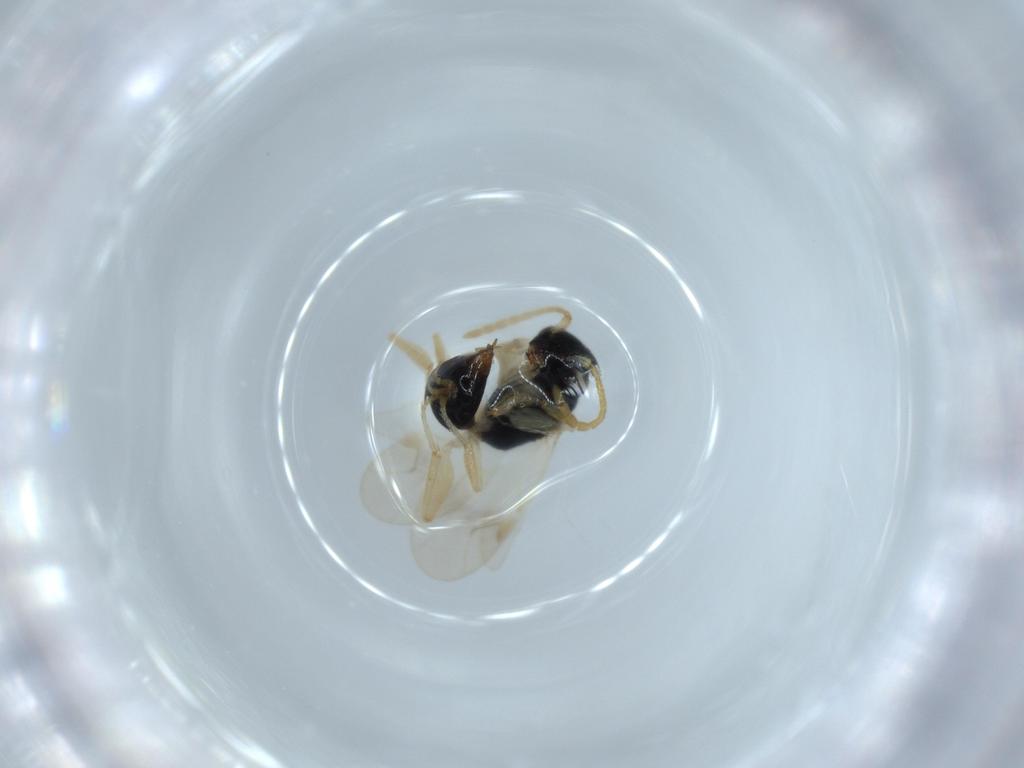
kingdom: Animalia
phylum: Arthropoda
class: Insecta
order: Hymenoptera
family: Dryinidae
